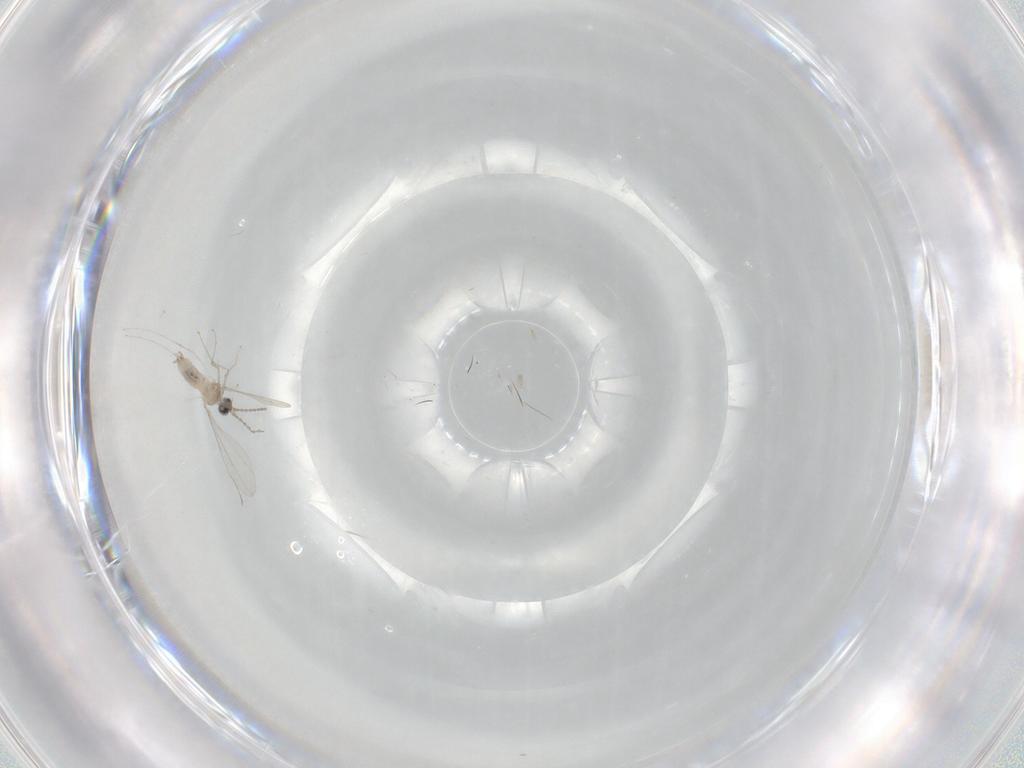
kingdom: Animalia
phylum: Arthropoda
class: Insecta
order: Diptera
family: Cecidomyiidae
